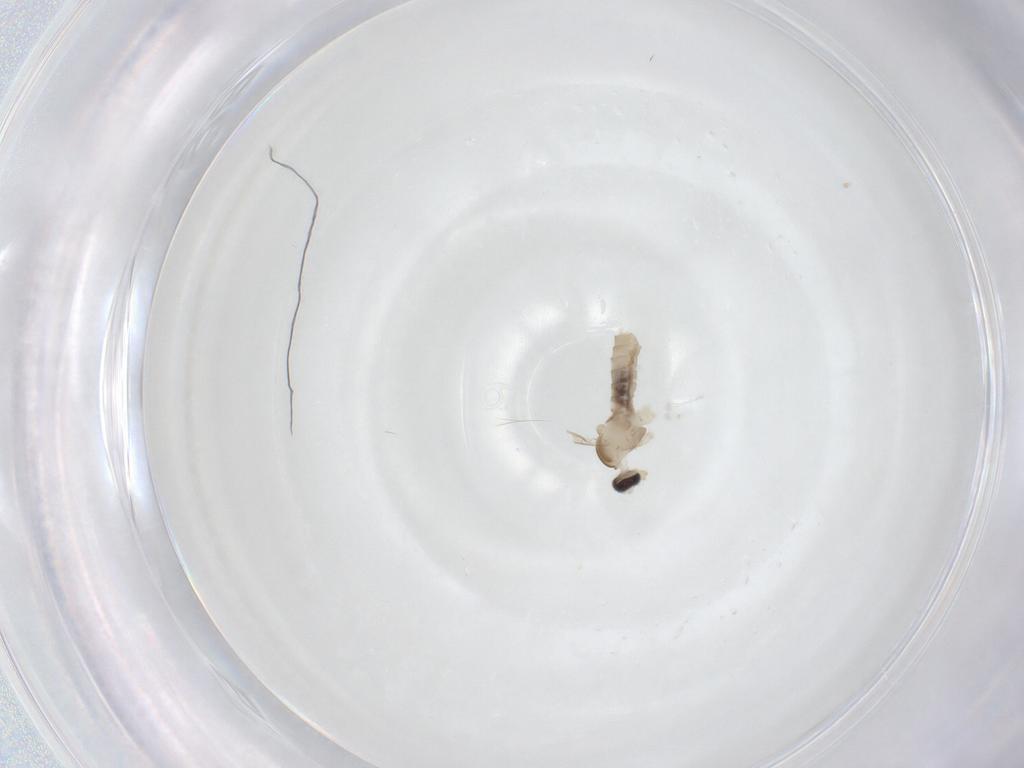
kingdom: Animalia
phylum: Arthropoda
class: Insecta
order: Diptera
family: Cecidomyiidae
